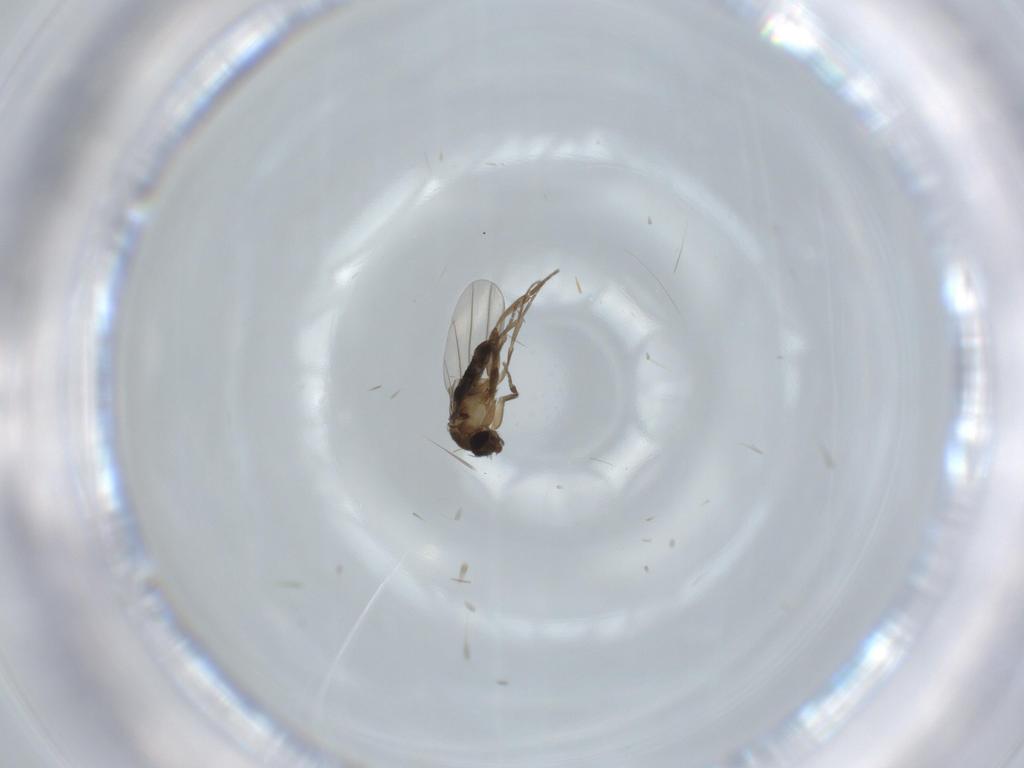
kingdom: Animalia
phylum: Arthropoda
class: Insecta
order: Diptera
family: Phoridae
